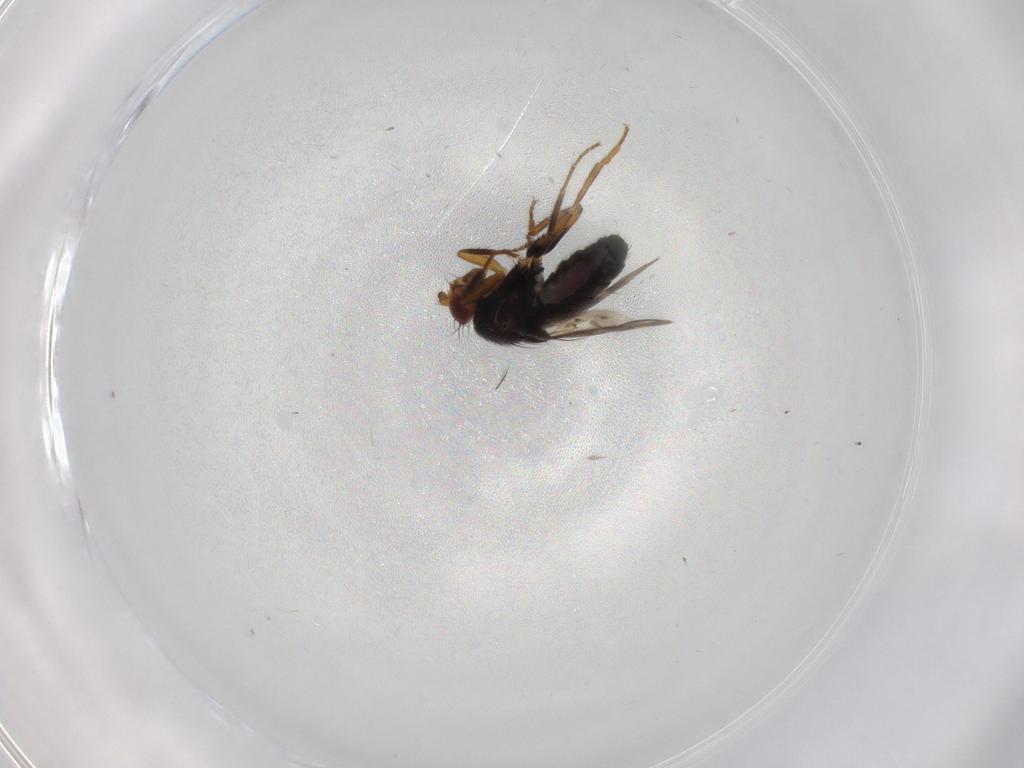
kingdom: Animalia
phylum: Arthropoda
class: Insecta
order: Diptera
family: Sphaeroceridae
